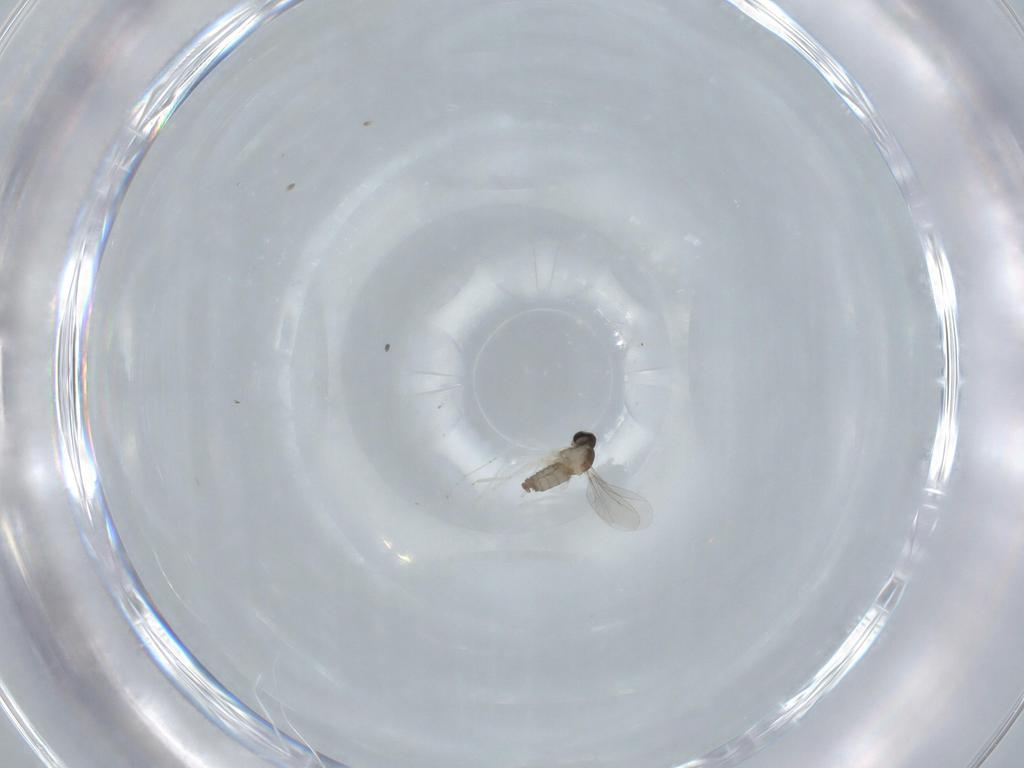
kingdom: Animalia
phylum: Arthropoda
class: Insecta
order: Diptera
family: Cecidomyiidae
